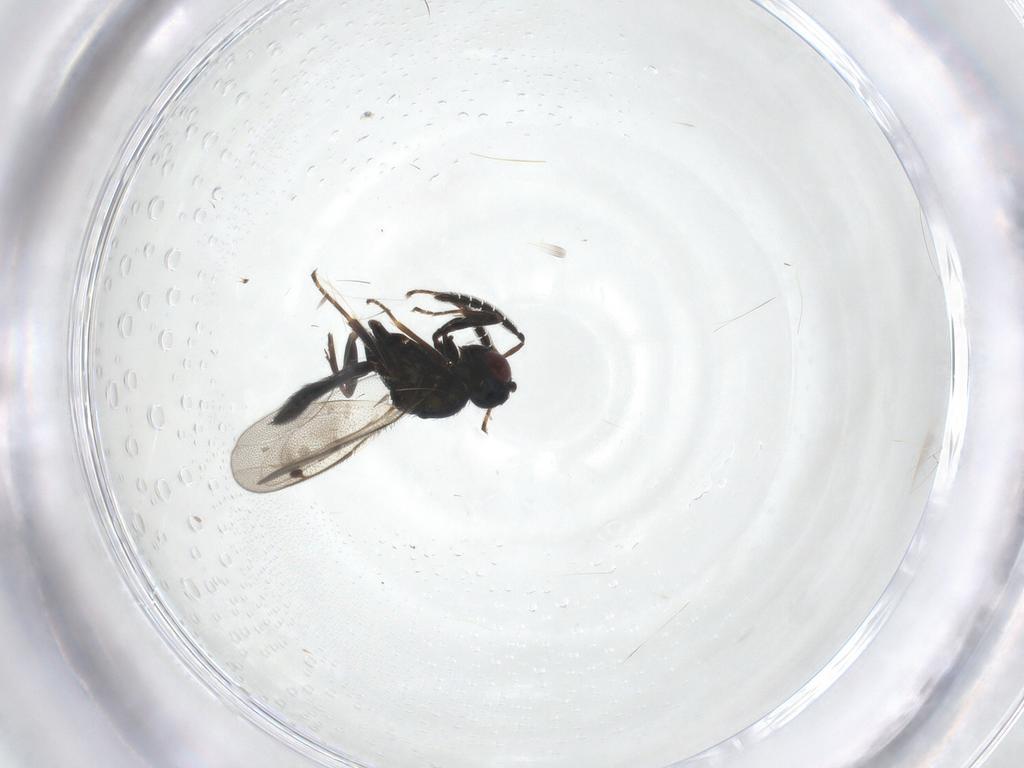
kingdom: Animalia
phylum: Arthropoda
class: Insecta
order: Hymenoptera
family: Pteromalidae
